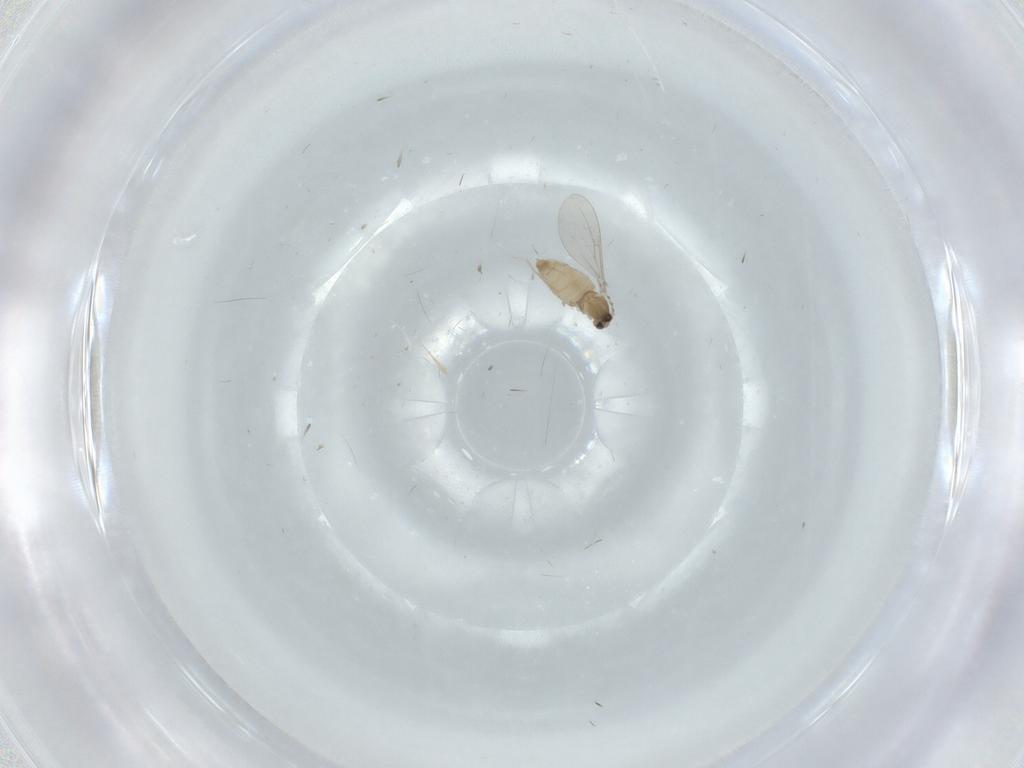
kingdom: Animalia
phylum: Arthropoda
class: Insecta
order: Diptera
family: Cecidomyiidae
